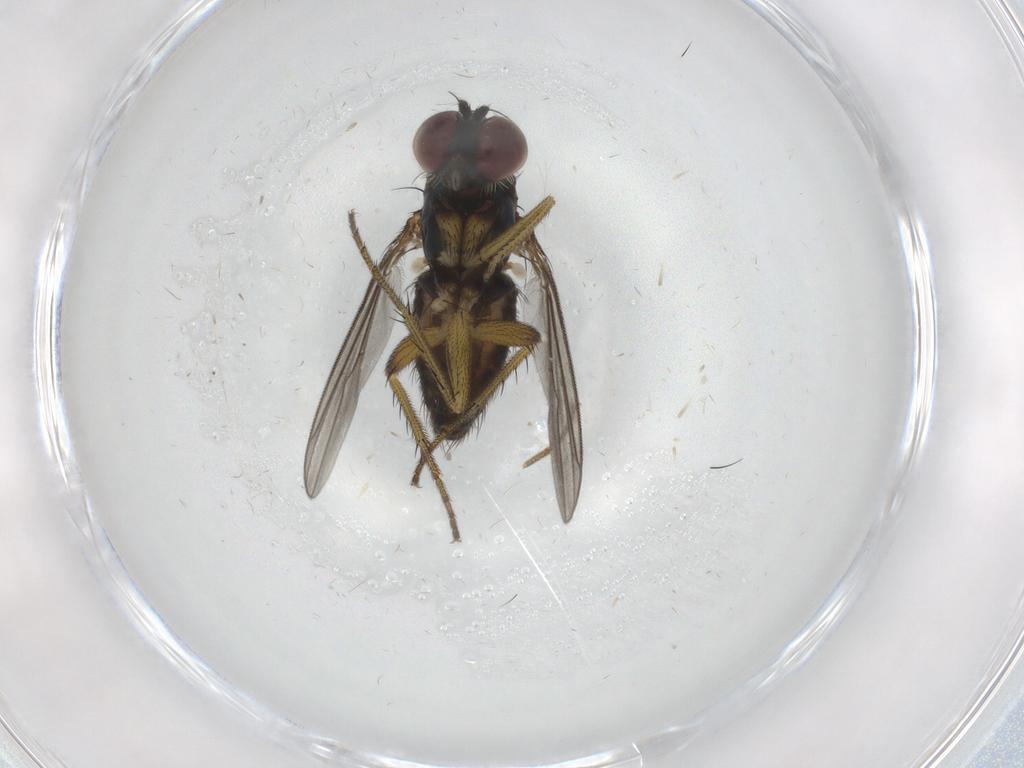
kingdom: Animalia
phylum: Arthropoda
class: Insecta
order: Diptera
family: Dolichopodidae
